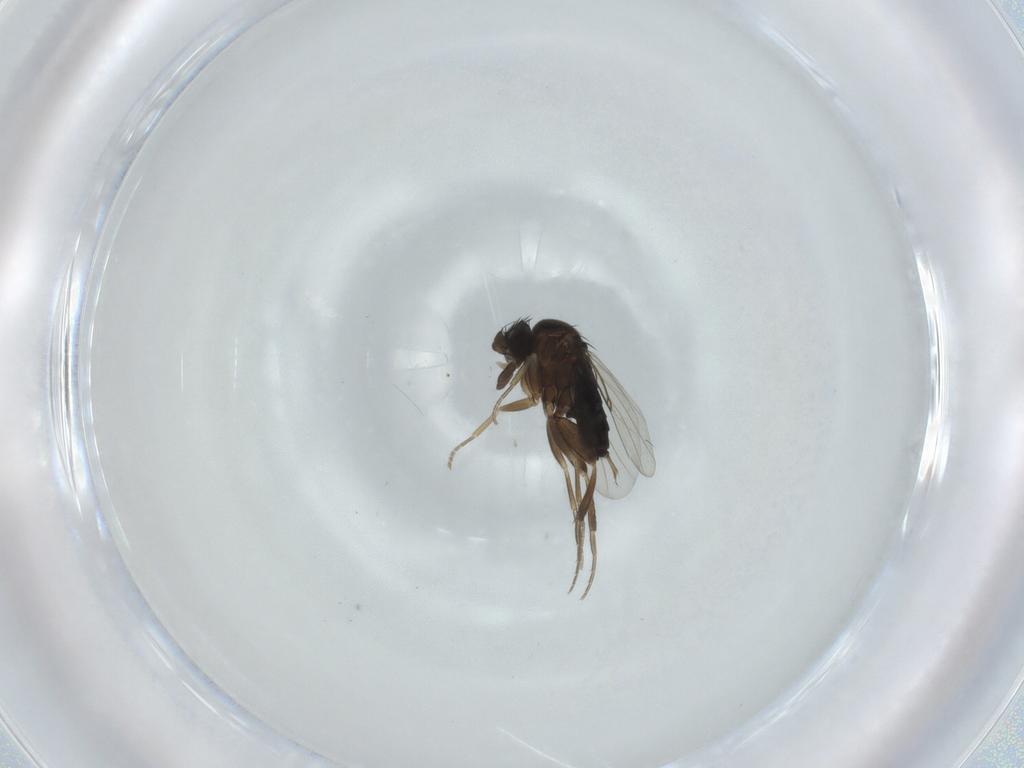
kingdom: Animalia
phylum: Arthropoda
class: Insecta
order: Diptera
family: Phoridae
